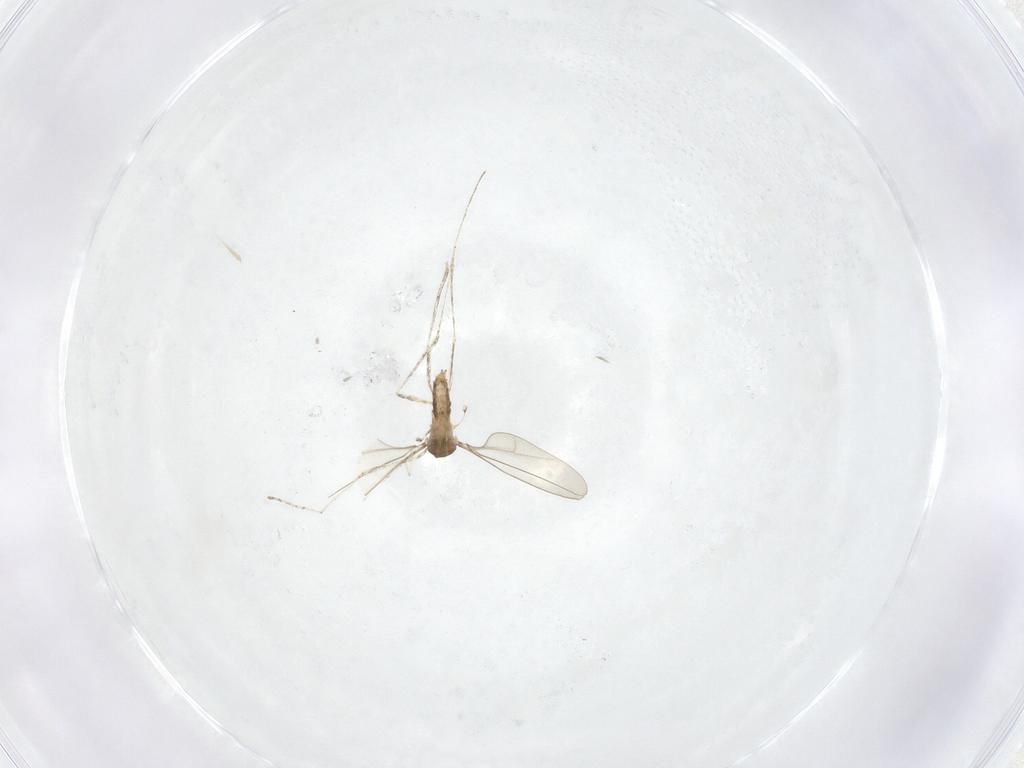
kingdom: Animalia
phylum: Arthropoda
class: Insecta
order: Diptera
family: Cecidomyiidae
